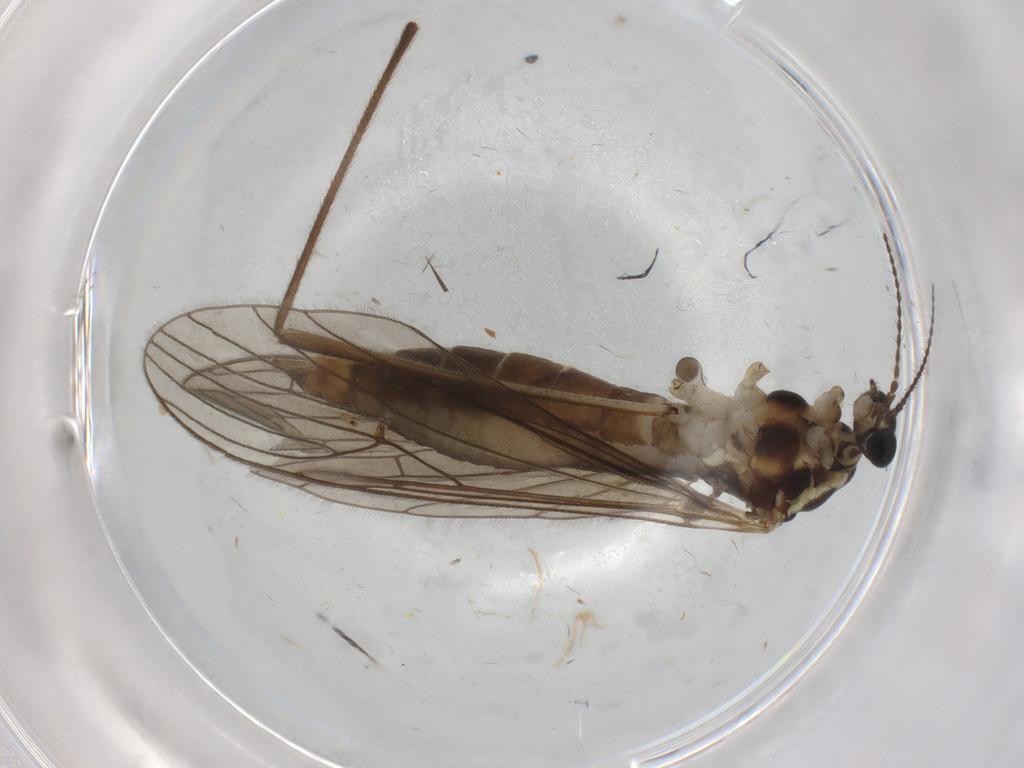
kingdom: Animalia
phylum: Arthropoda
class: Insecta
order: Diptera
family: Limoniidae
